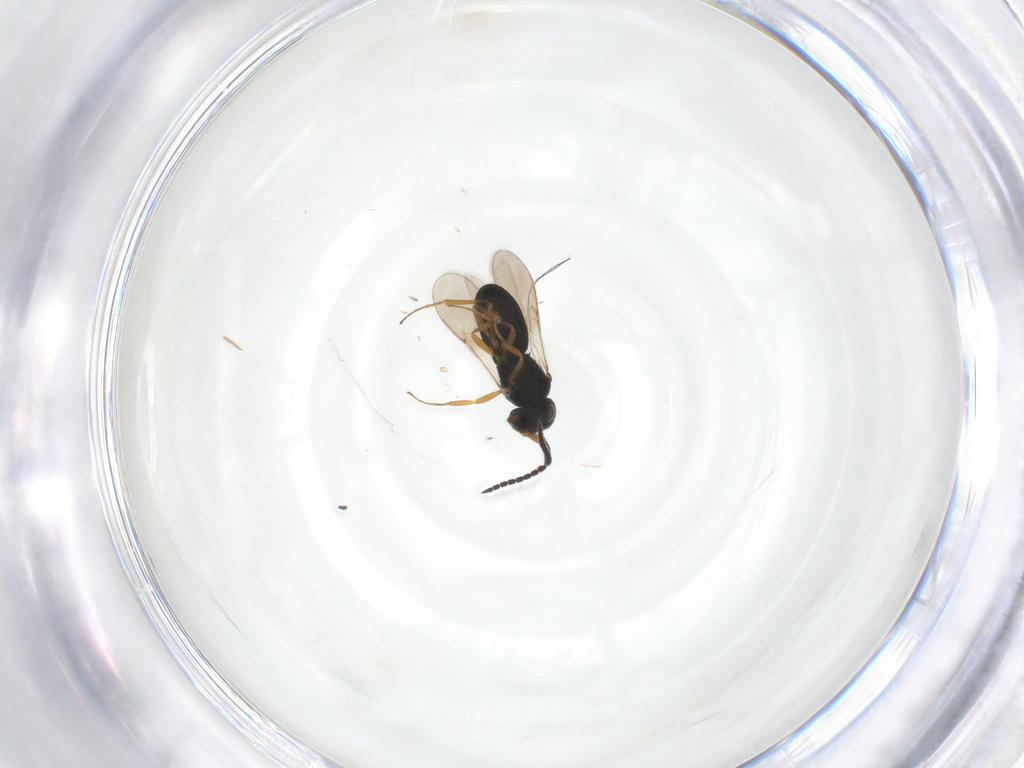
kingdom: Animalia
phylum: Arthropoda
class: Insecta
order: Hymenoptera
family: Scelionidae
